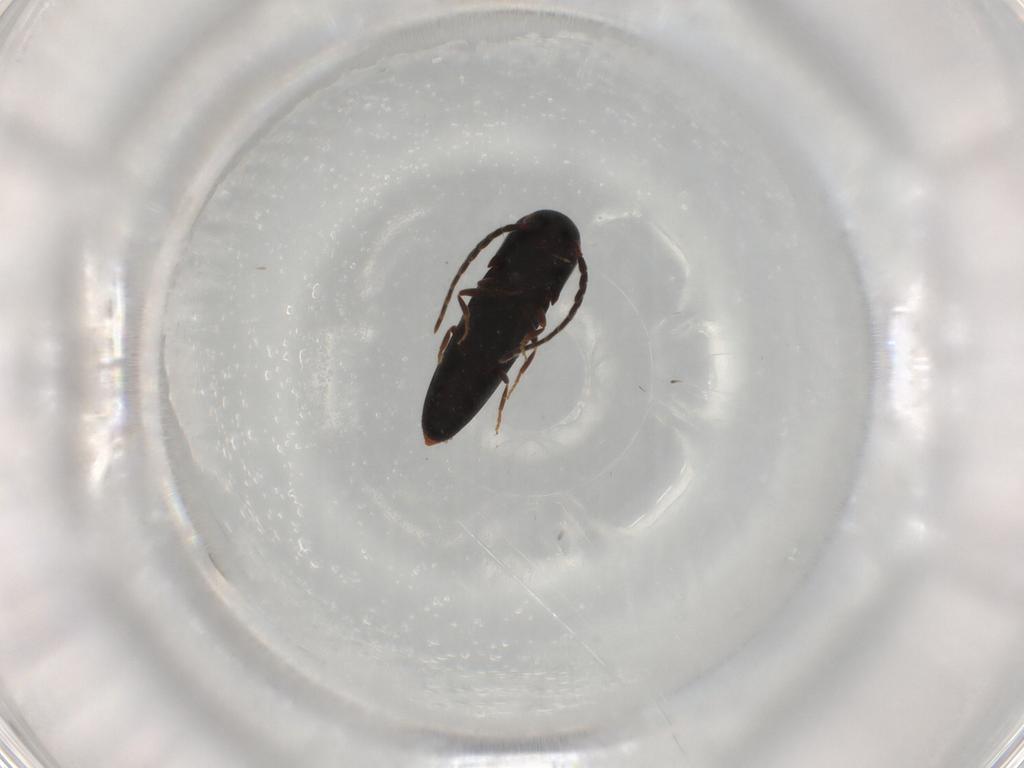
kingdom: Animalia
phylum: Arthropoda
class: Insecta
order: Coleoptera
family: Eucnemidae
